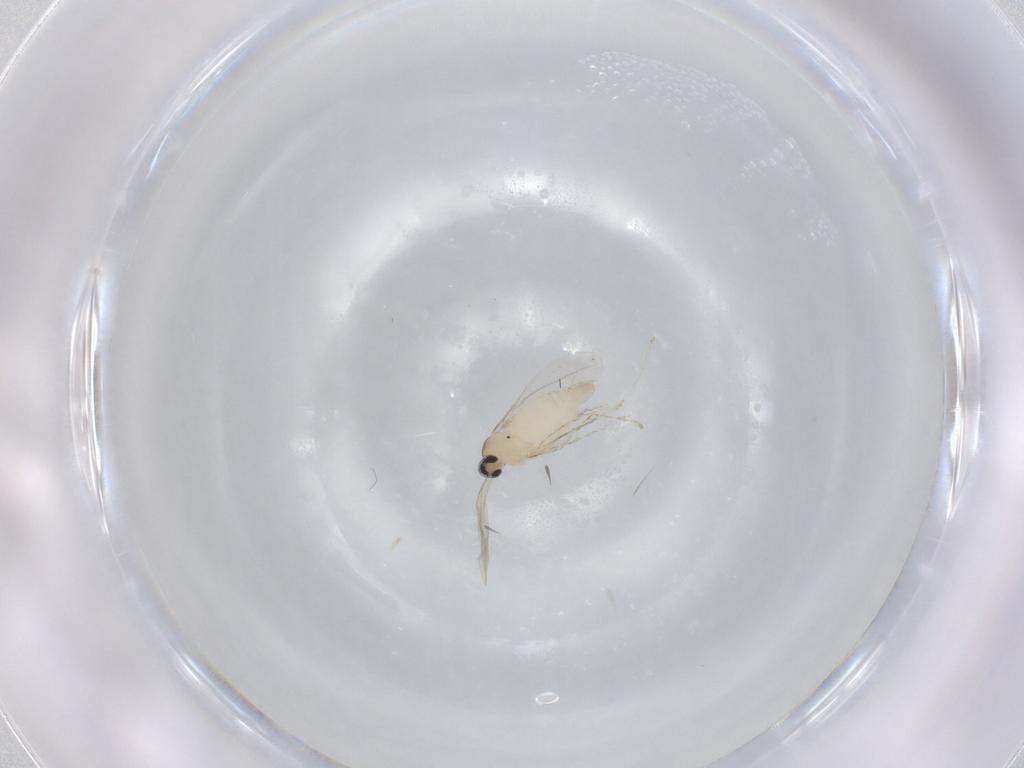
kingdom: Animalia
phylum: Arthropoda
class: Insecta
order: Diptera
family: Cecidomyiidae
